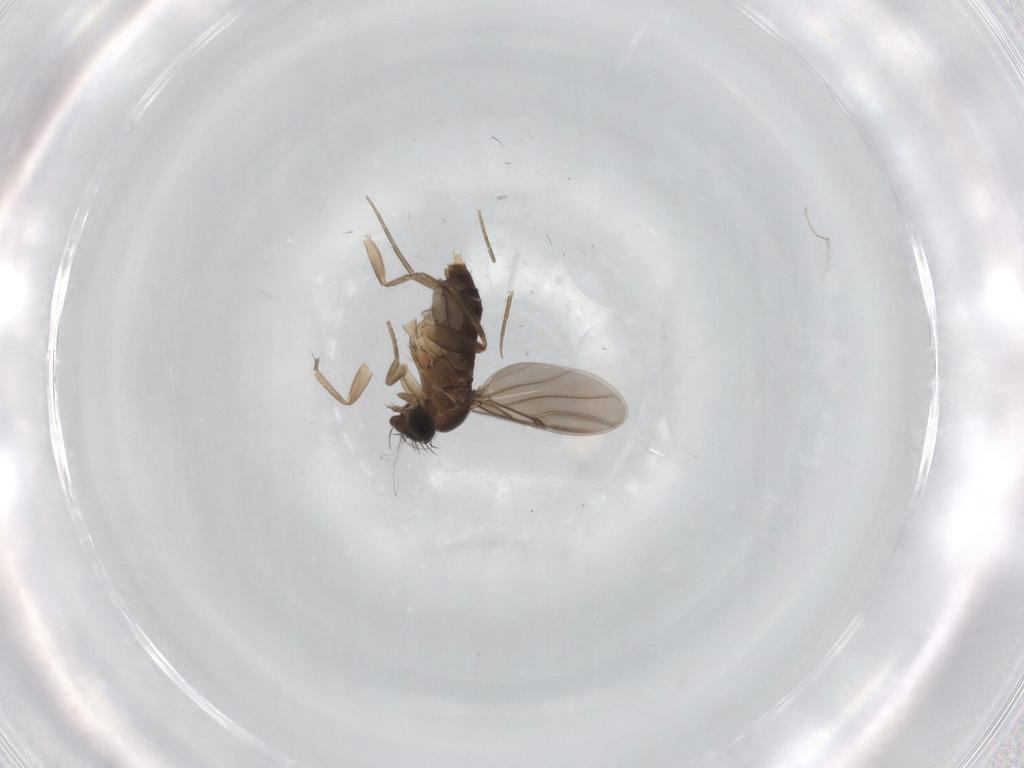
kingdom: Animalia
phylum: Arthropoda
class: Insecta
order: Diptera
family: Phoridae
